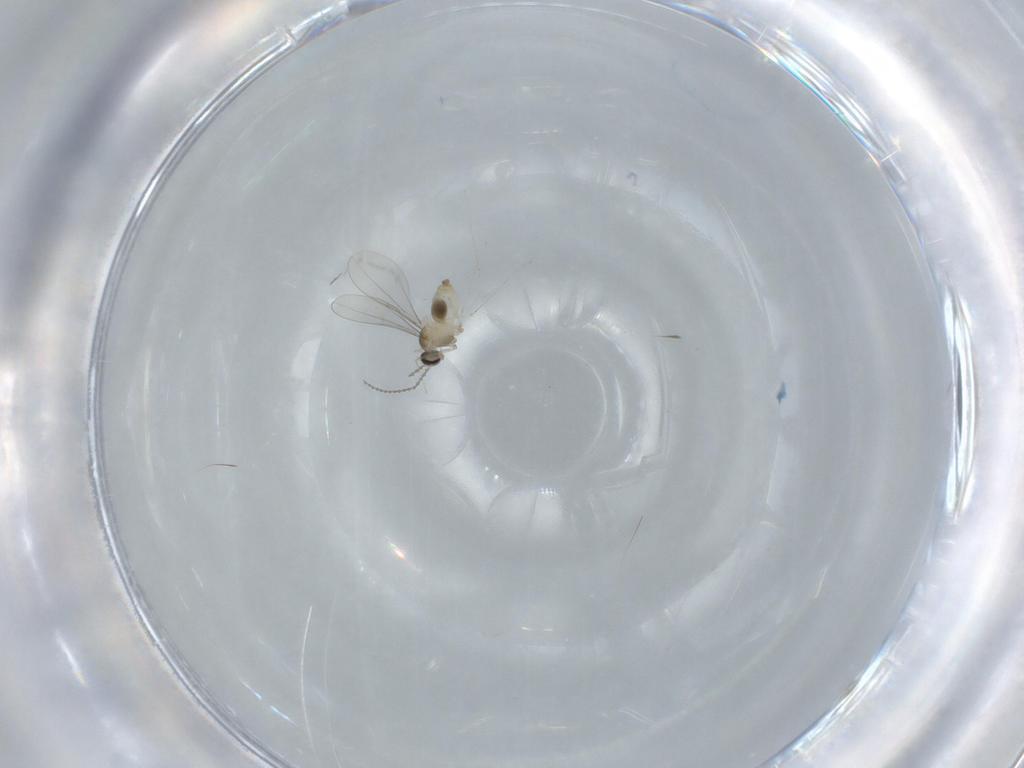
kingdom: Animalia
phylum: Arthropoda
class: Insecta
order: Diptera
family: Cecidomyiidae
